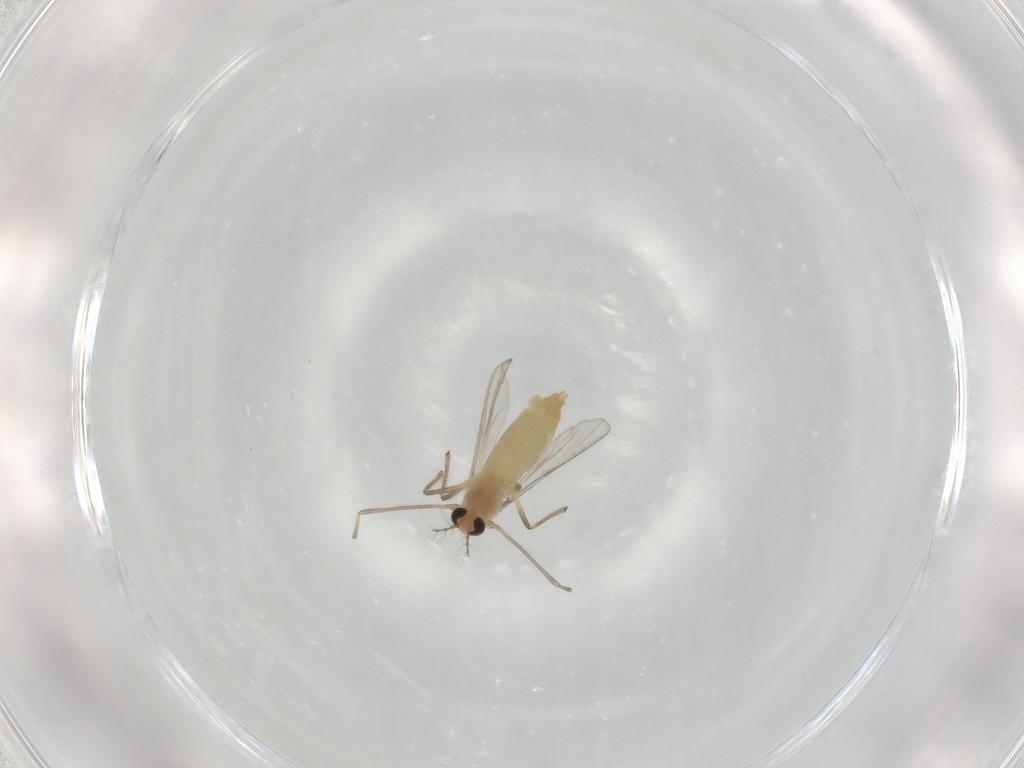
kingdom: Animalia
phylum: Arthropoda
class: Insecta
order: Diptera
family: Chironomidae
